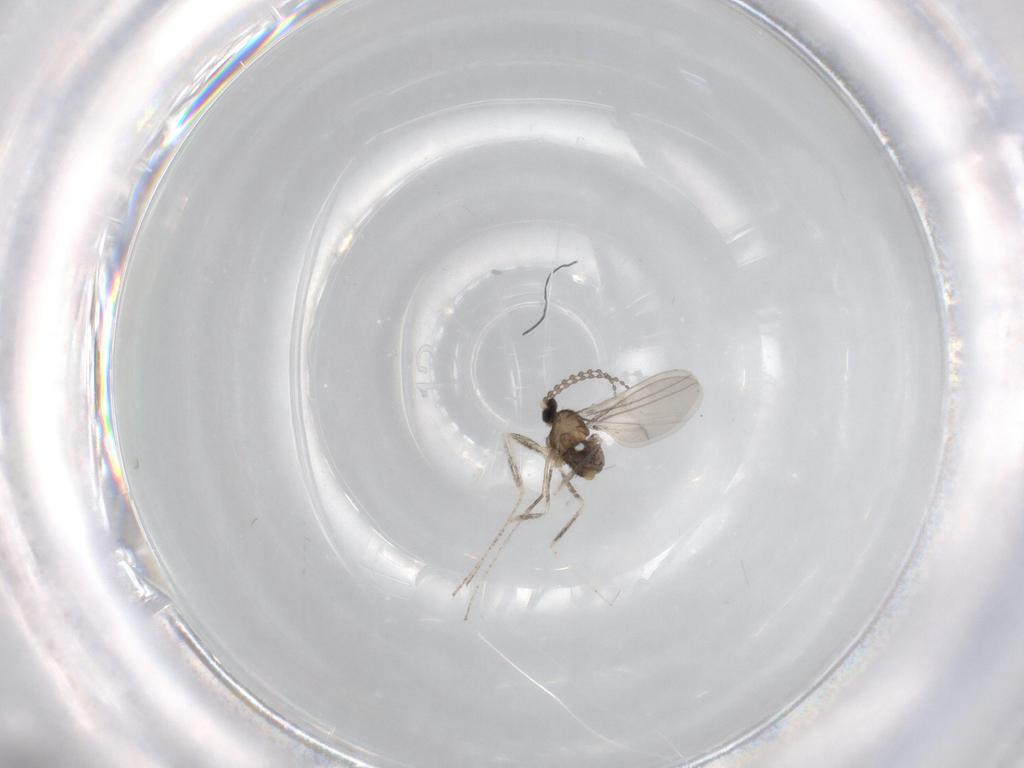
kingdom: Animalia
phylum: Arthropoda
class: Insecta
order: Diptera
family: Cecidomyiidae
